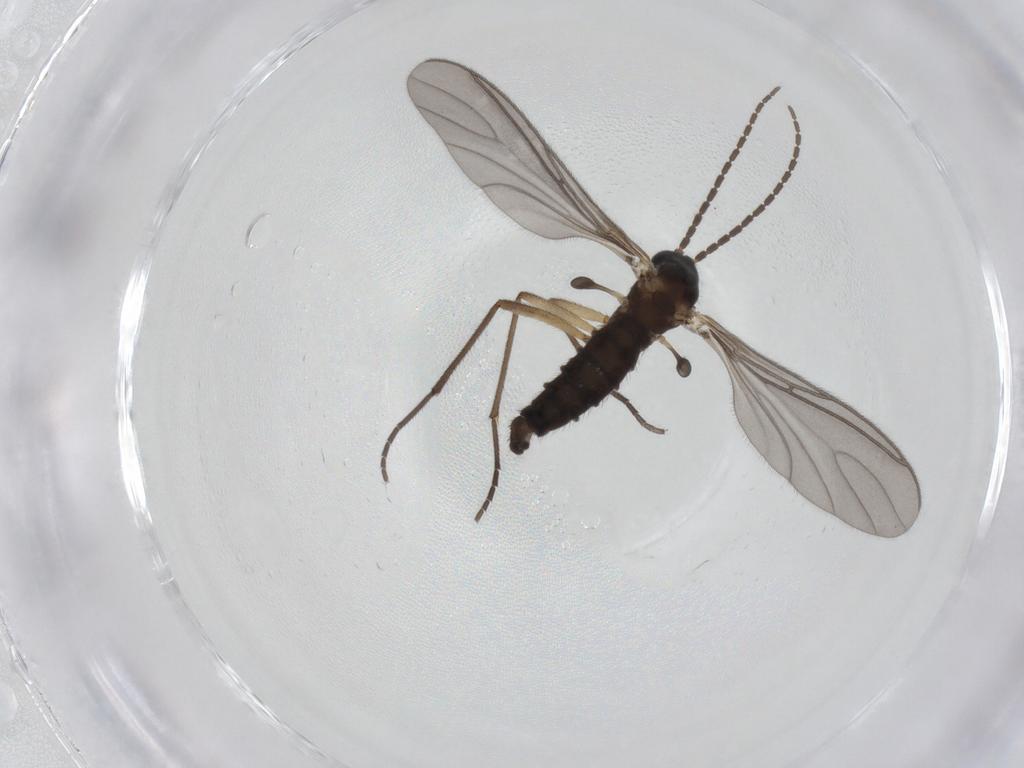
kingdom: Animalia
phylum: Arthropoda
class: Insecta
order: Diptera
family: Sciaridae
